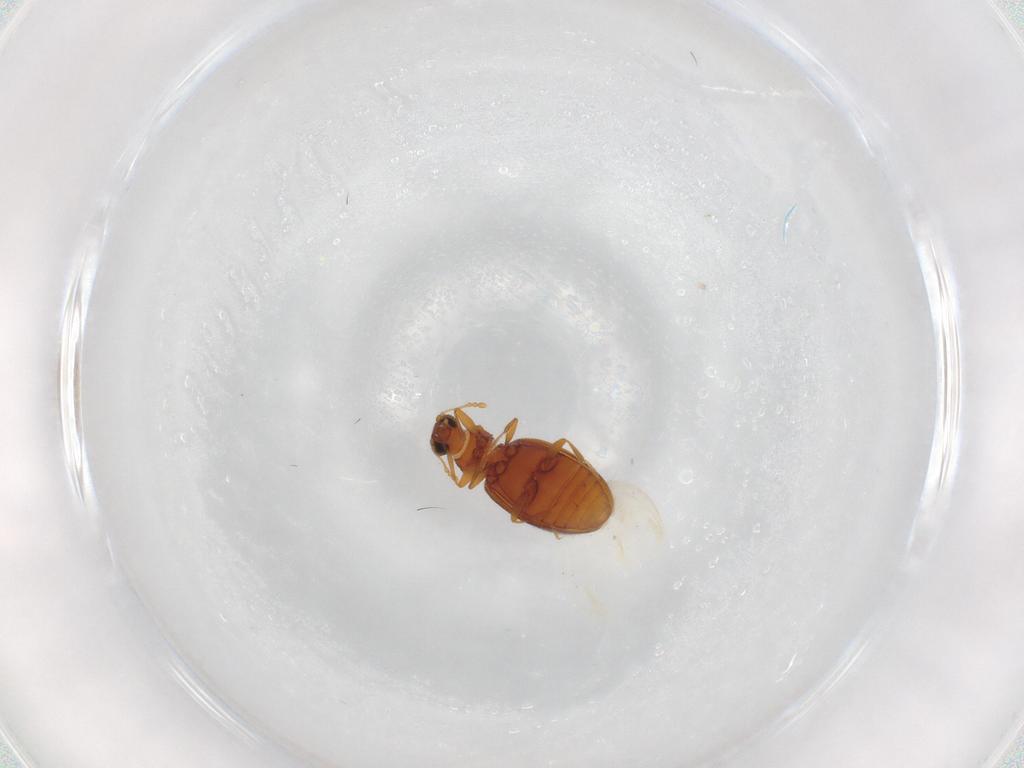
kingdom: Animalia
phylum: Arthropoda
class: Insecta
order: Coleoptera
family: Latridiidae
